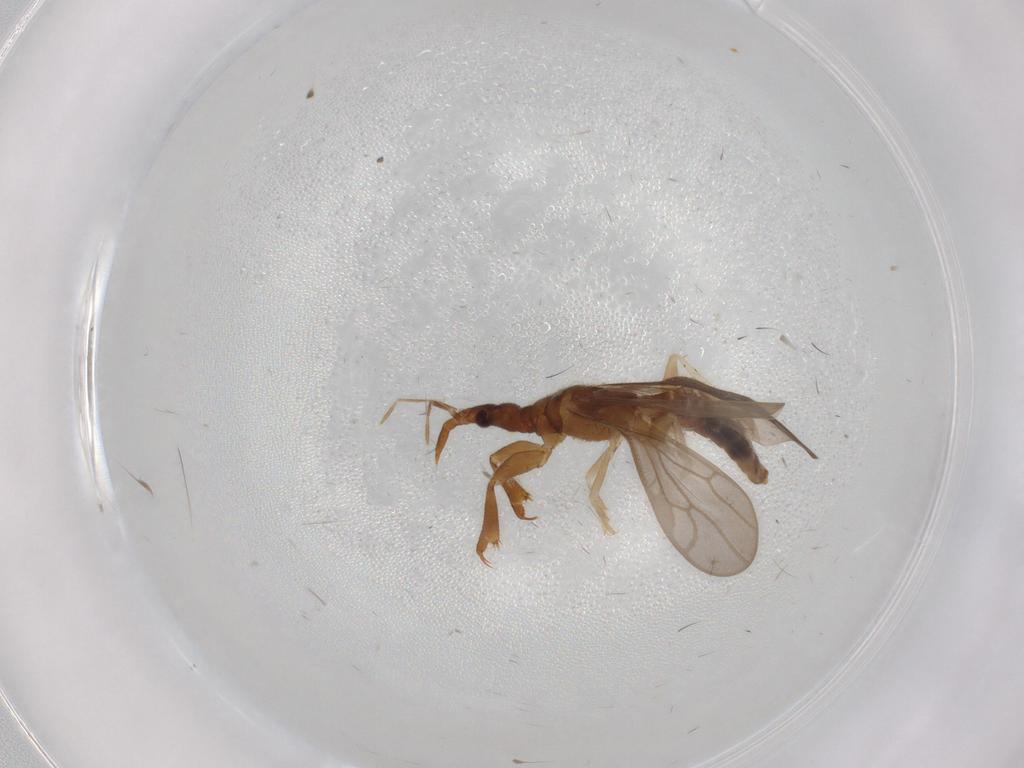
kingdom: Animalia
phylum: Arthropoda
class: Insecta
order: Hemiptera
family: Enicocephalidae
